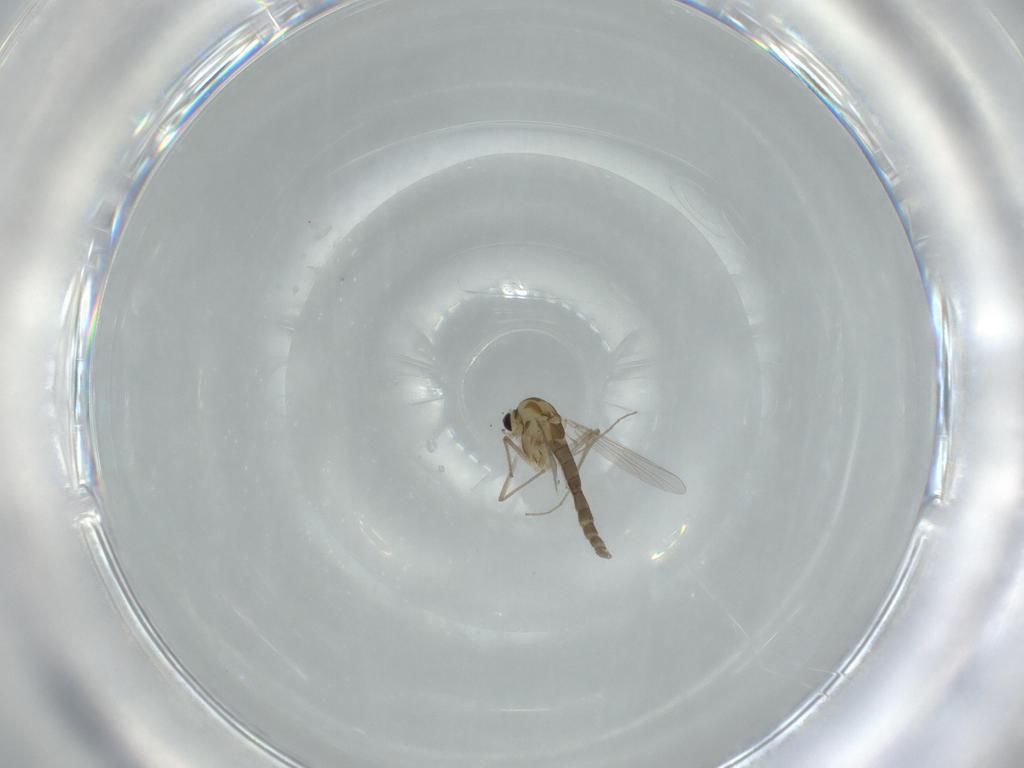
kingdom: Animalia
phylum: Arthropoda
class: Insecta
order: Diptera
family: Chironomidae
